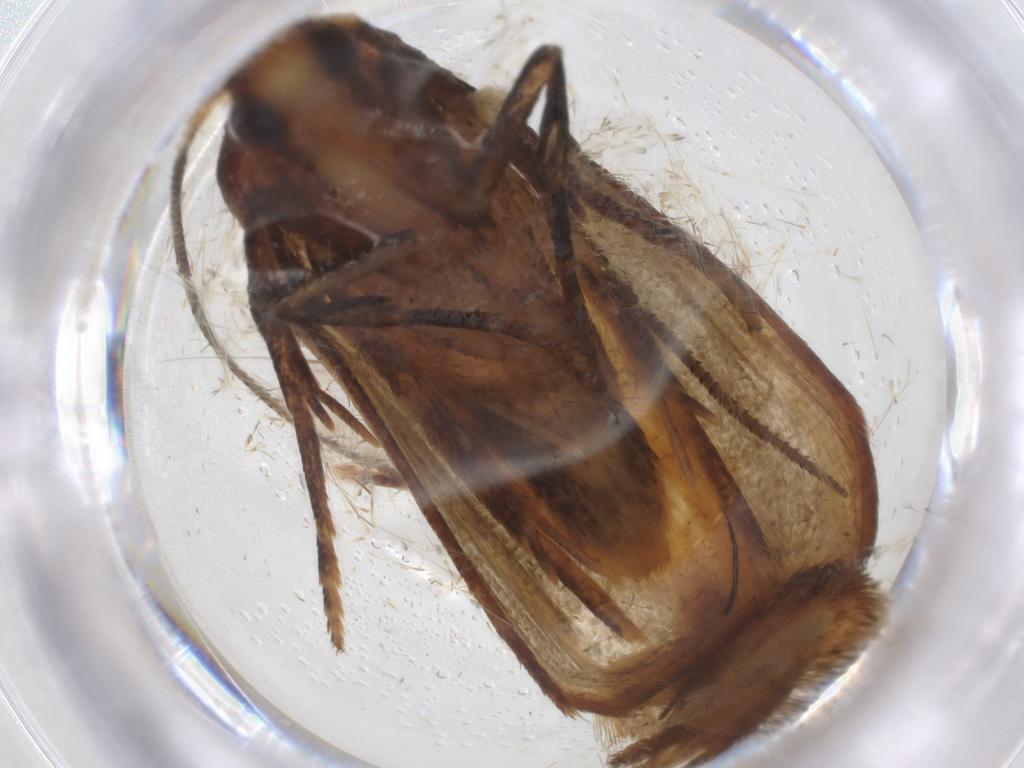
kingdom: Animalia
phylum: Arthropoda
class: Insecta
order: Lepidoptera
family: Blastobasidae
